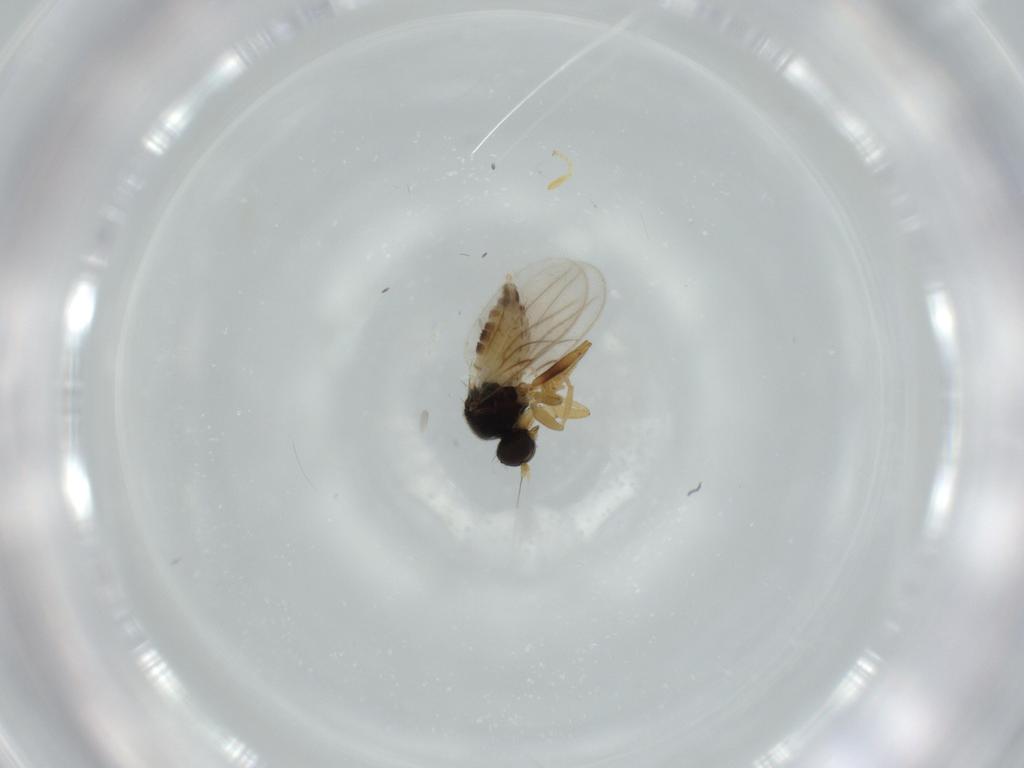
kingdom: Animalia
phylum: Arthropoda
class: Insecta
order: Diptera
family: Hybotidae
